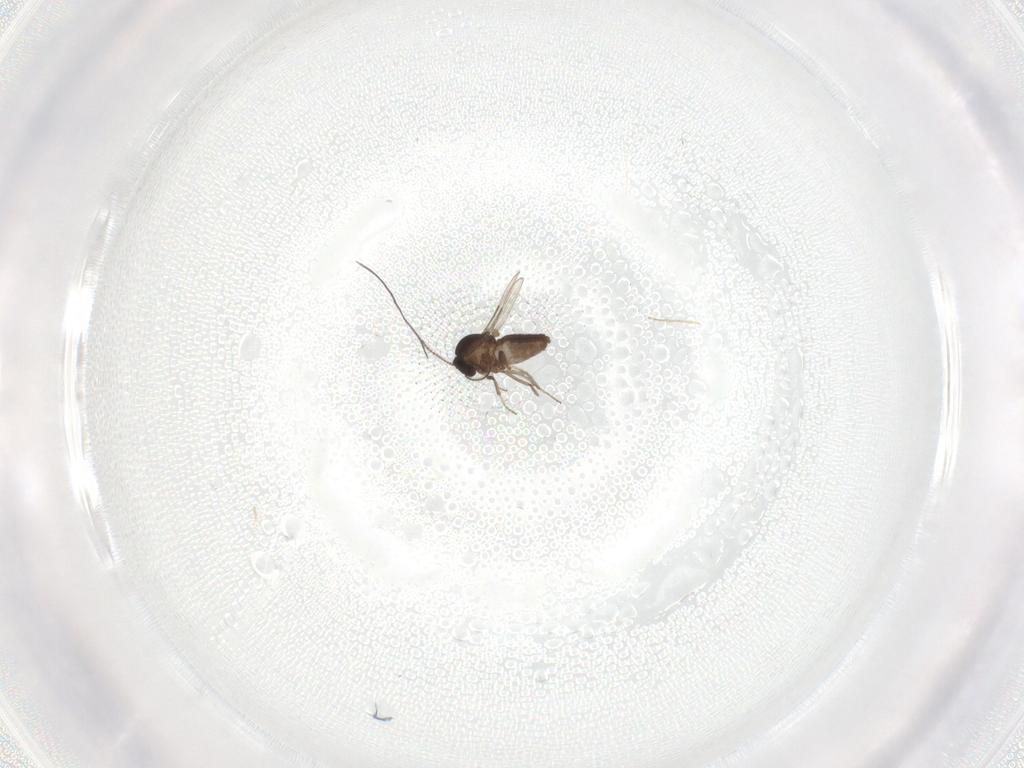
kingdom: Animalia
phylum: Arthropoda
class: Insecta
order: Diptera
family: Ceratopogonidae
